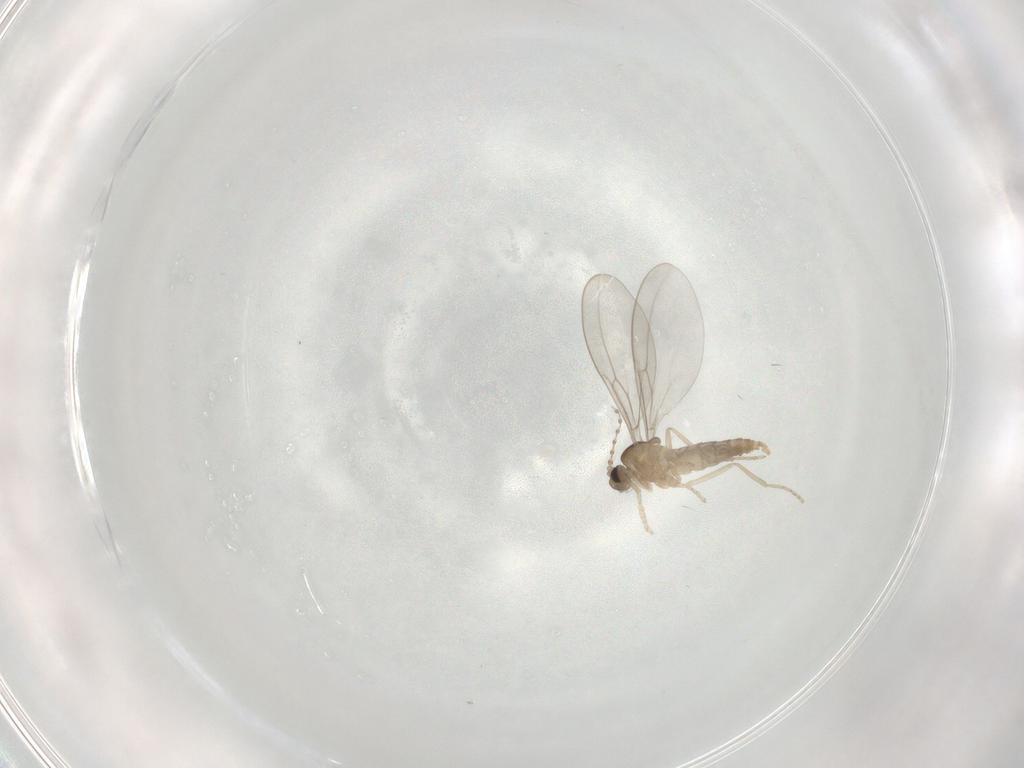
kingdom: Animalia
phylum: Arthropoda
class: Insecta
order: Diptera
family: Cecidomyiidae
